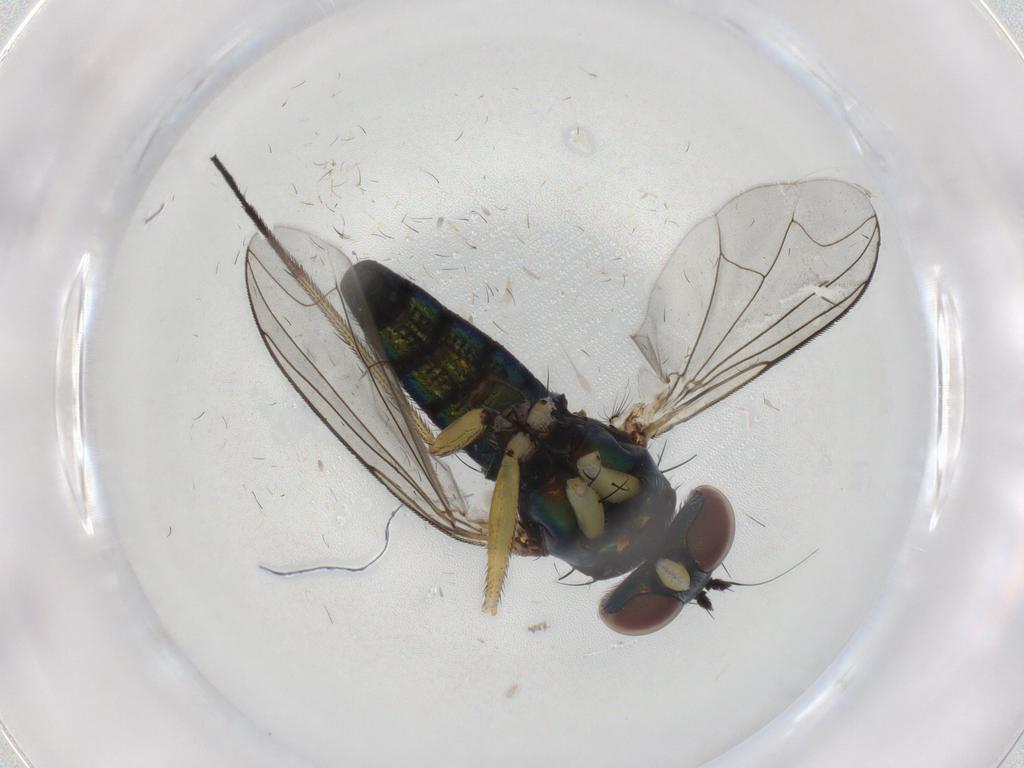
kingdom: Animalia
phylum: Arthropoda
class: Insecta
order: Diptera
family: Dolichopodidae
